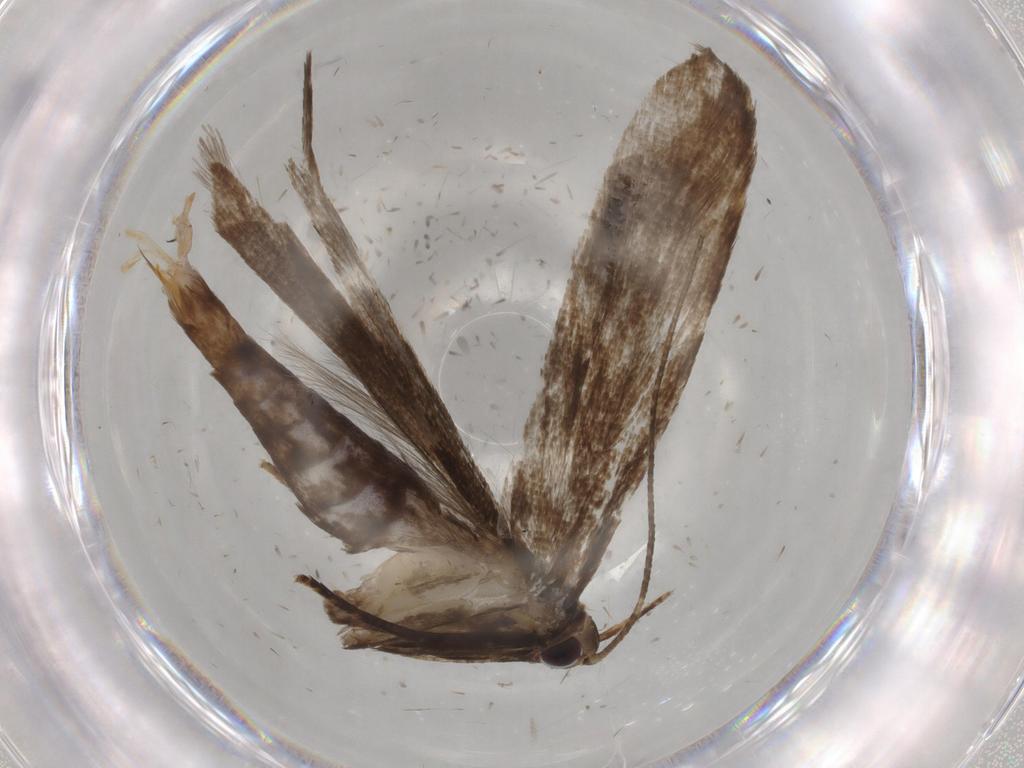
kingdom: Animalia
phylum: Arthropoda
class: Insecta
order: Lepidoptera
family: Gelechiidae
